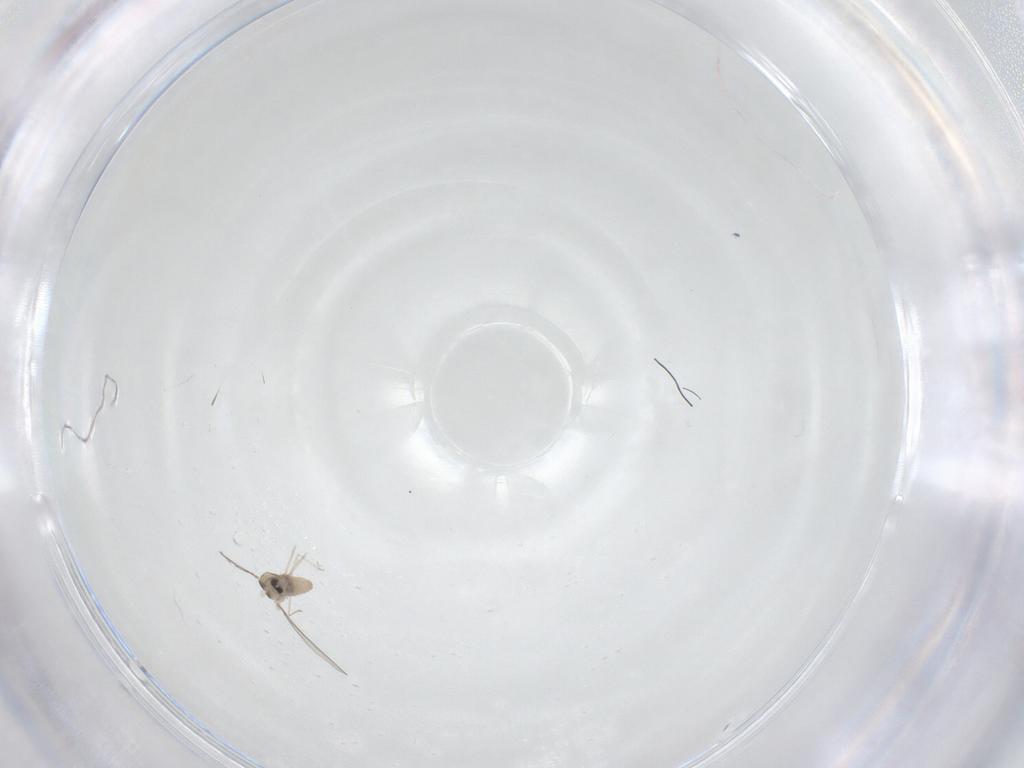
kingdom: Animalia
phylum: Arthropoda
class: Insecta
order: Diptera
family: Cecidomyiidae
